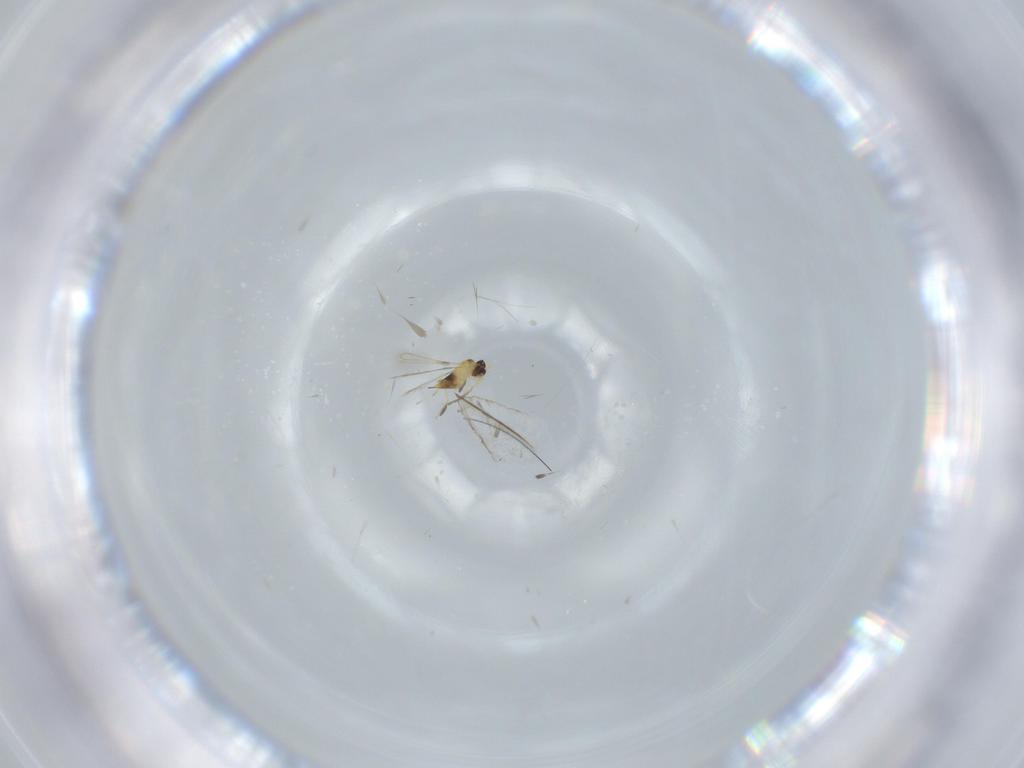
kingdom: Animalia
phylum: Arthropoda
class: Insecta
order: Hymenoptera
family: Mymaridae
